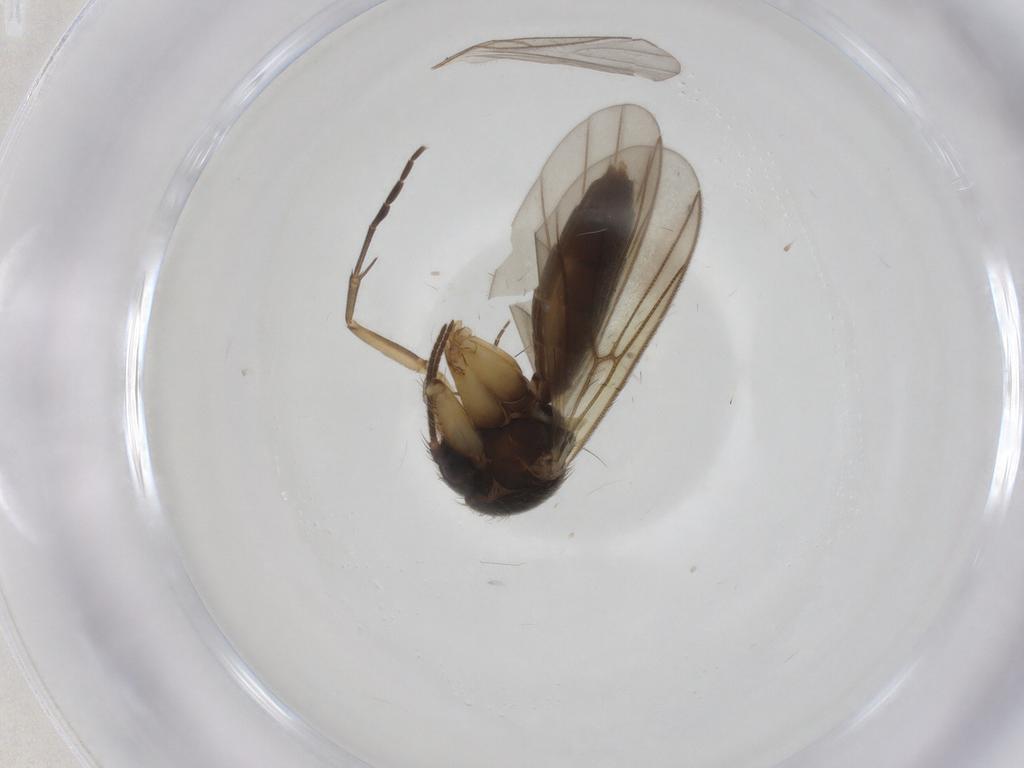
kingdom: Animalia
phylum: Arthropoda
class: Insecta
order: Diptera
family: Mycetophilidae
